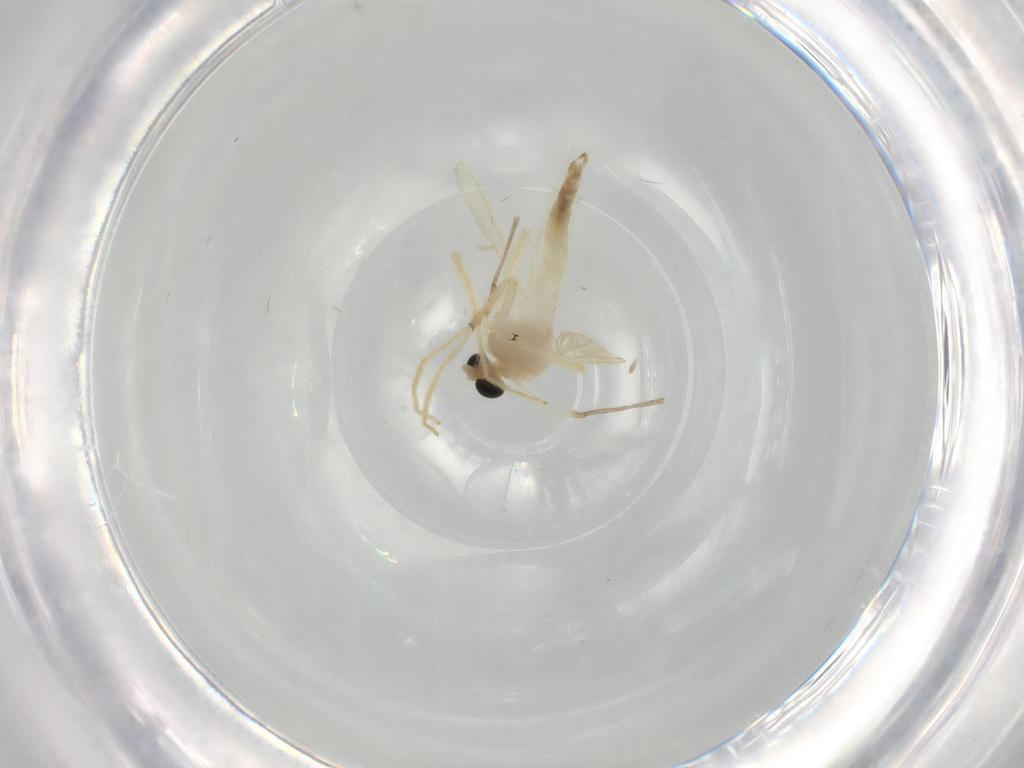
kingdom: Animalia
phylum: Arthropoda
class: Insecta
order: Diptera
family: Chironomidae
